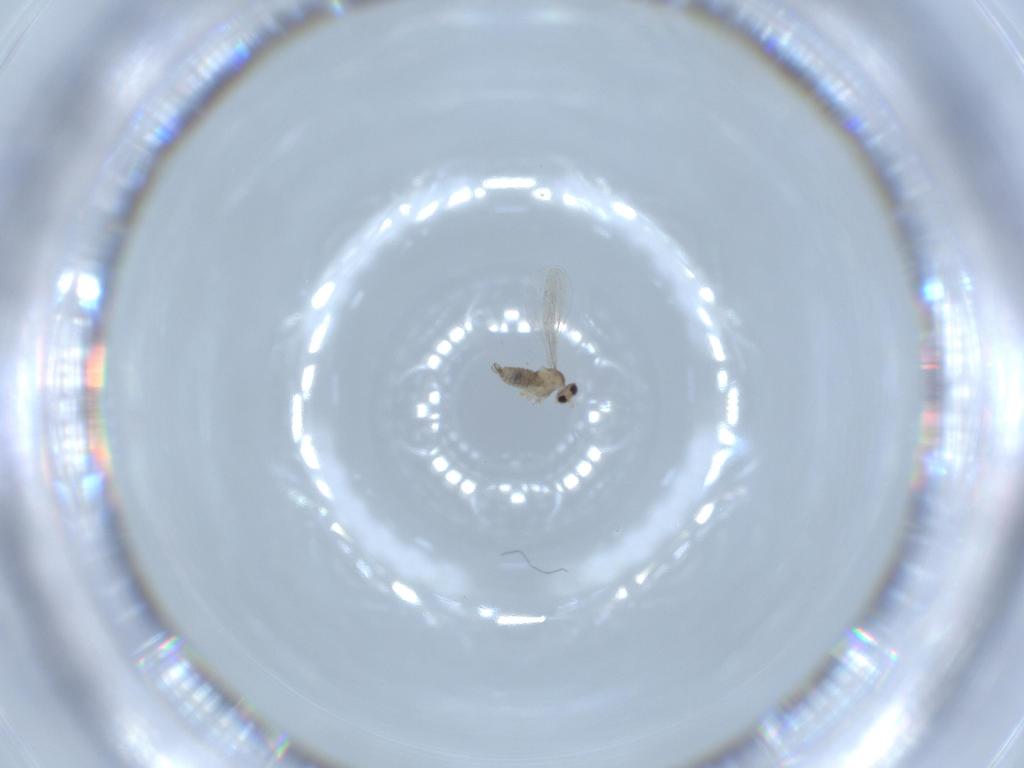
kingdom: Animalia
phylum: Arthropoda
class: Insecta
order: Diptera
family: Cecidomyiidae
